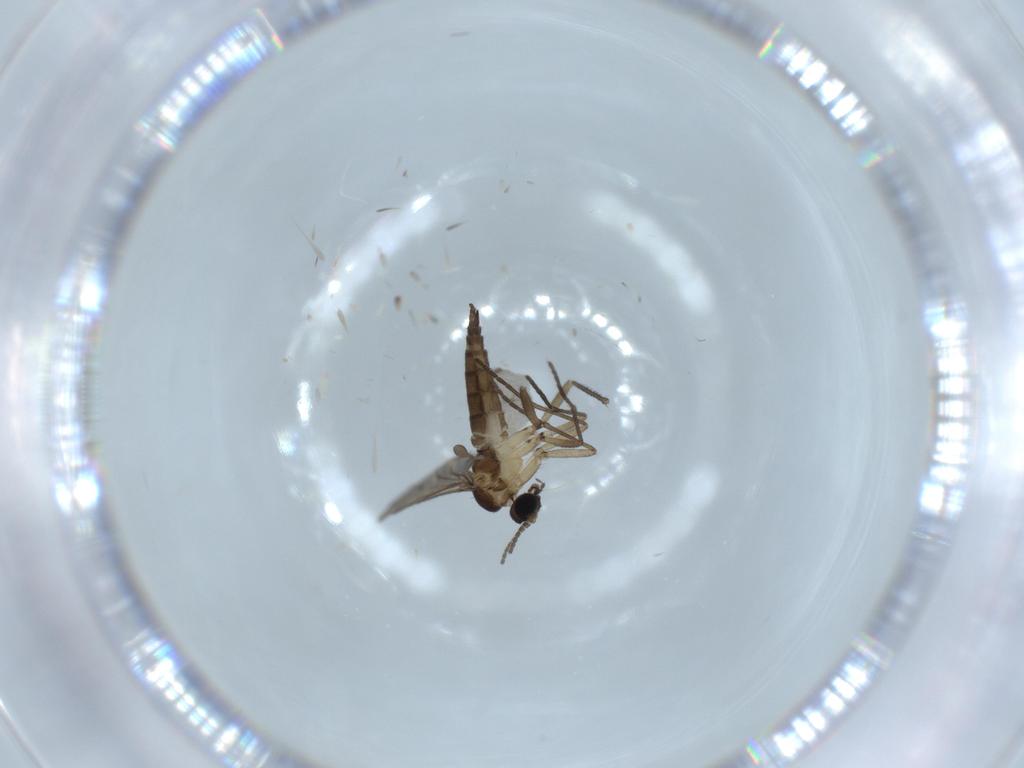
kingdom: Animalia
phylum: Arthropoda
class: Insecta
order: Diptera
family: Sciaridae
